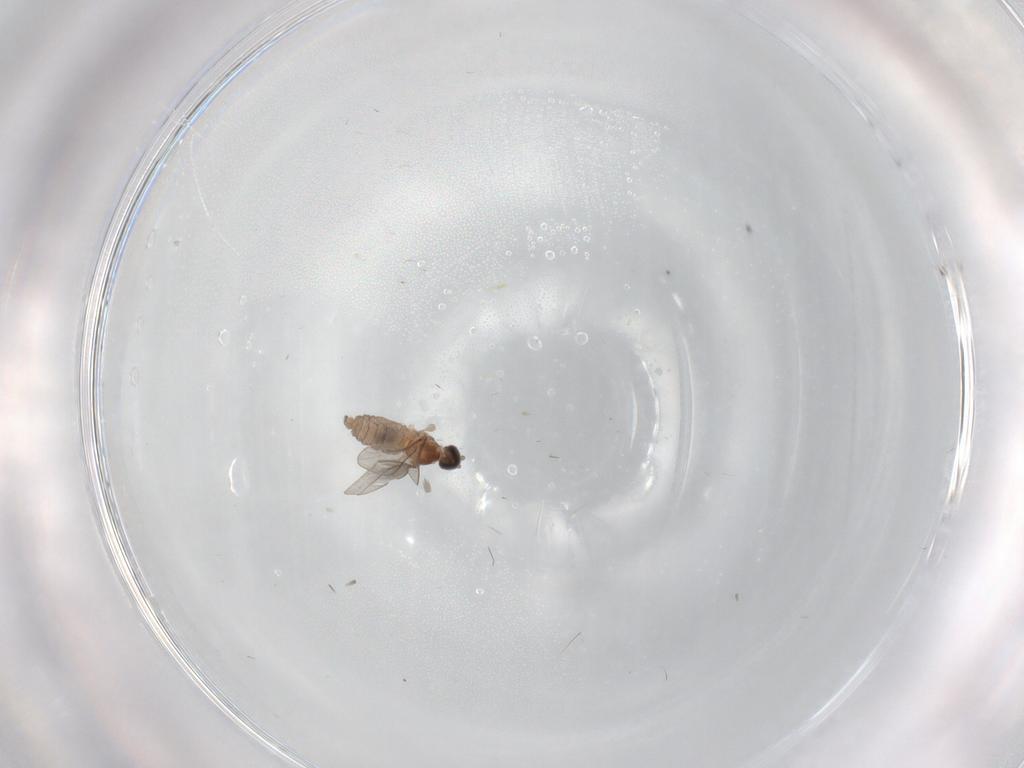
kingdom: Animalia
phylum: Arthropoda
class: Insecta
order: Diptera
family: Cecidomyiidae
